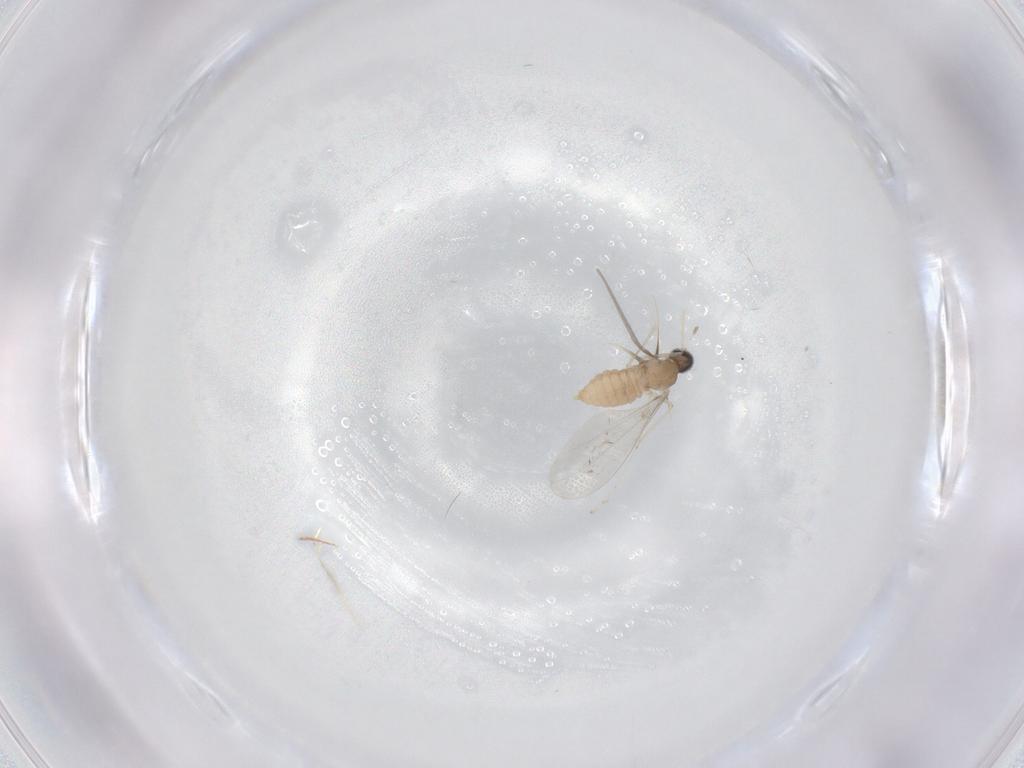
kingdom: Animalia
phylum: Arthropoda
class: Insecta
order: Diptera
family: Cecidomyiidae
